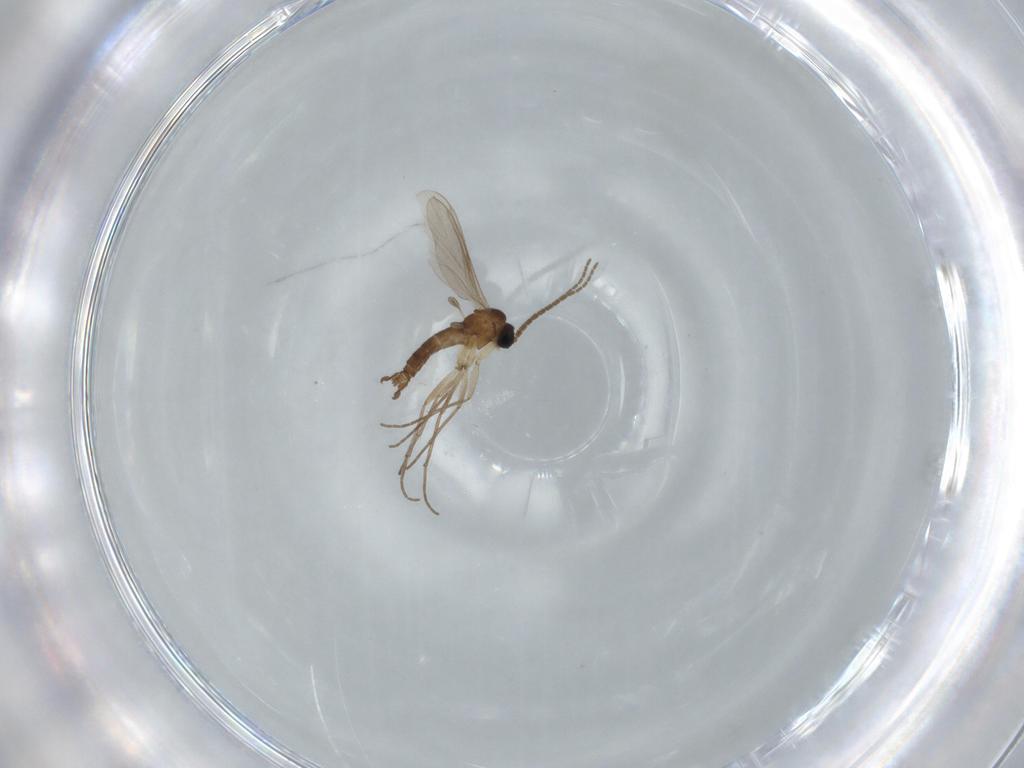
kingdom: Animalia
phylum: Arthropoda
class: Insecta
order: Diptera
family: Sciaridae
